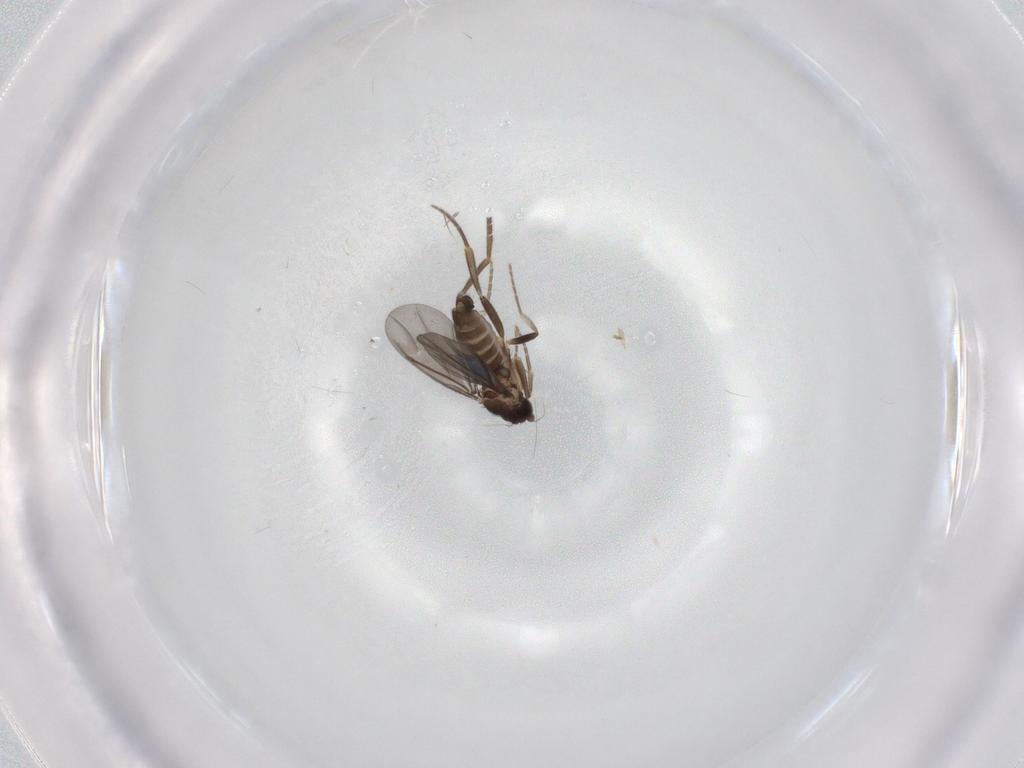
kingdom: Animalia
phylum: Arthropoda
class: Insecta
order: Diptera
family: Phoridae
